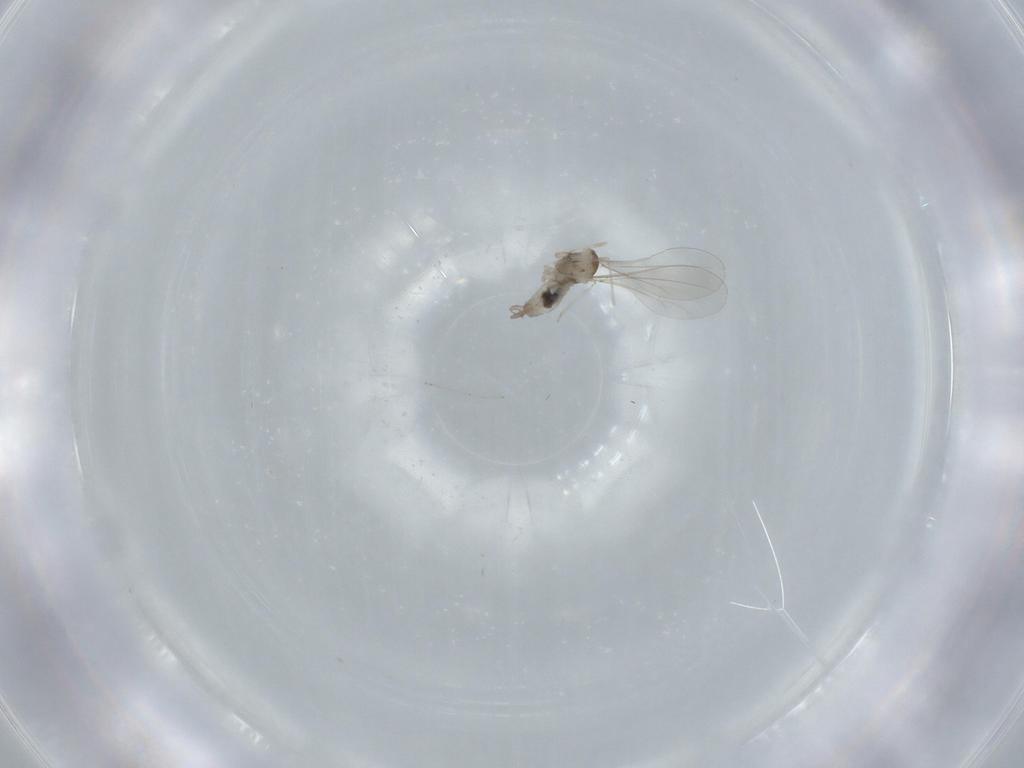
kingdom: Animalia
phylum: Arthropoda
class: Insecta
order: Diptera
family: Cecidomyiidae
